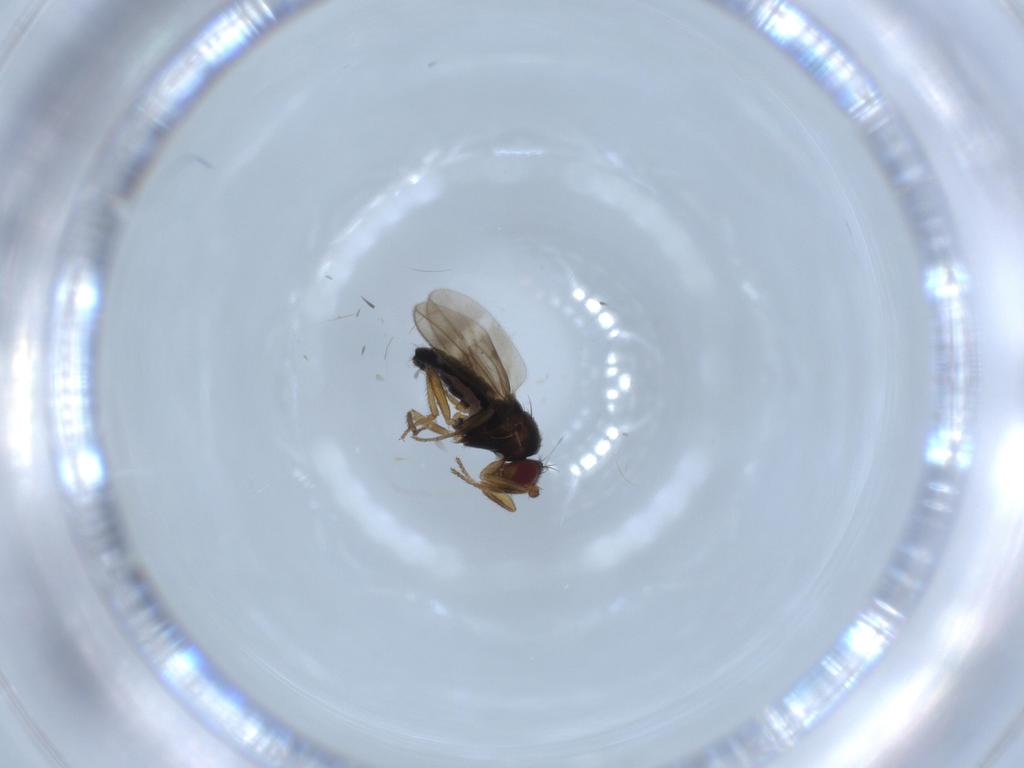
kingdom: Animalia
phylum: Arthropoda
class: Insecta
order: Diptera
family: Sphaeroceridae
